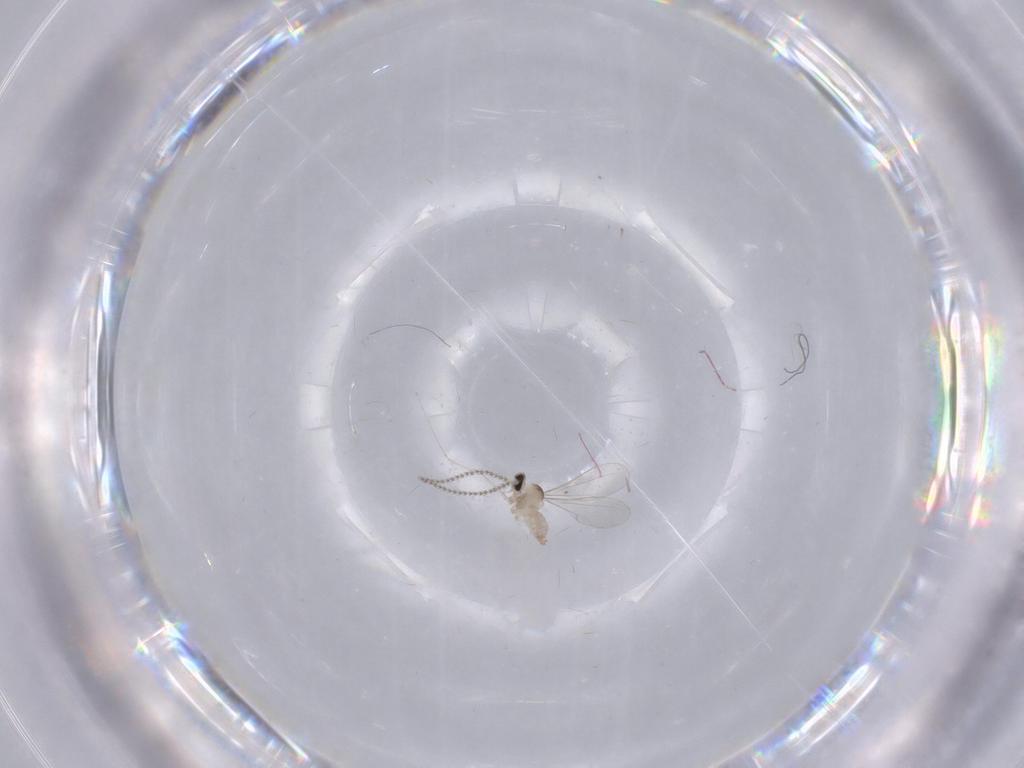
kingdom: Animalia
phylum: Arthropoda
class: Insecta
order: Diptera
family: Cecidomyiidae
